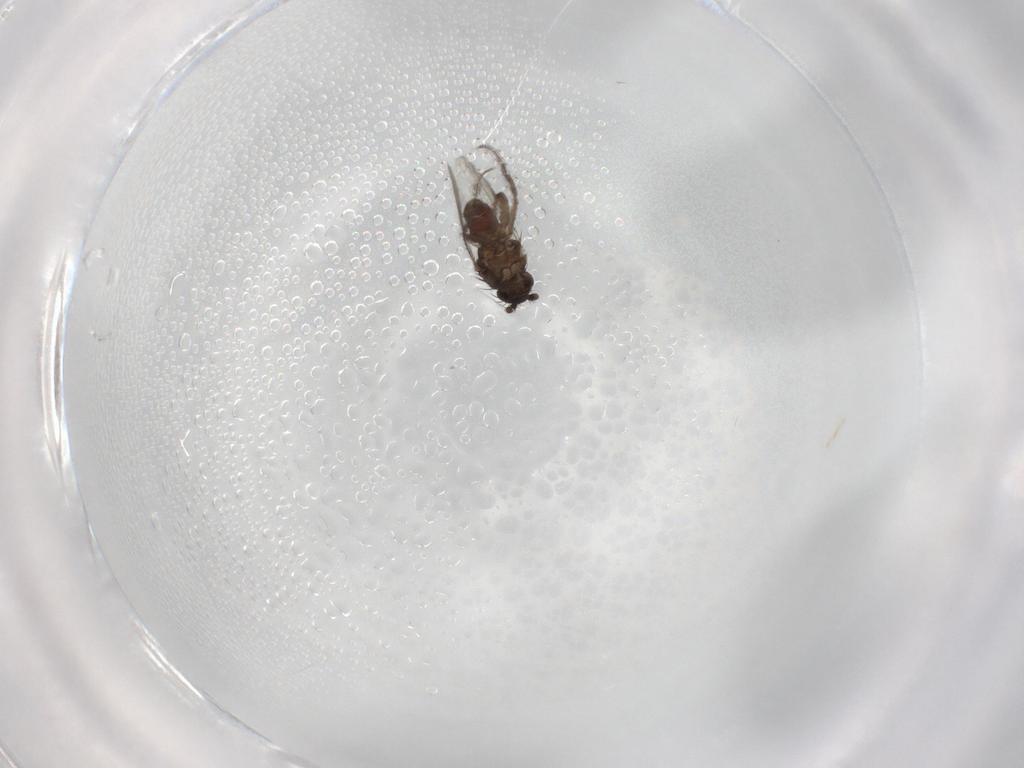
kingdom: Animalia
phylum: Arthropoda
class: Insecta
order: Diptera
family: Sphaeroceridae
